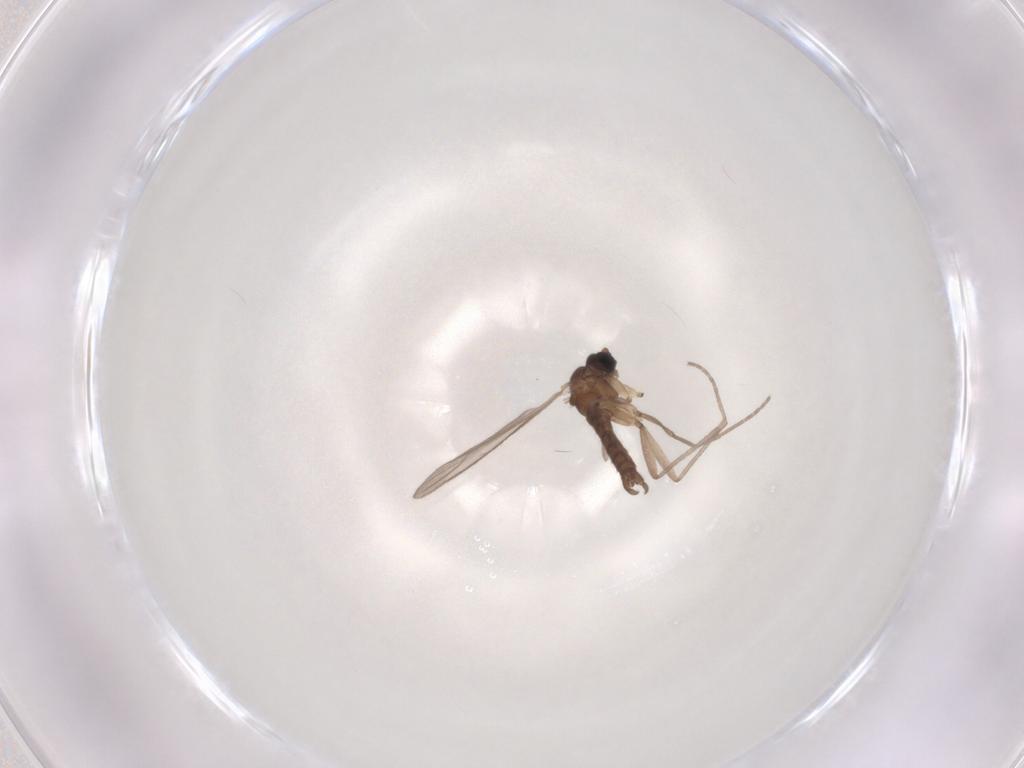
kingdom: Animalia
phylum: Arthropoda
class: Insecta
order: Diptera
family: Sciaridae
